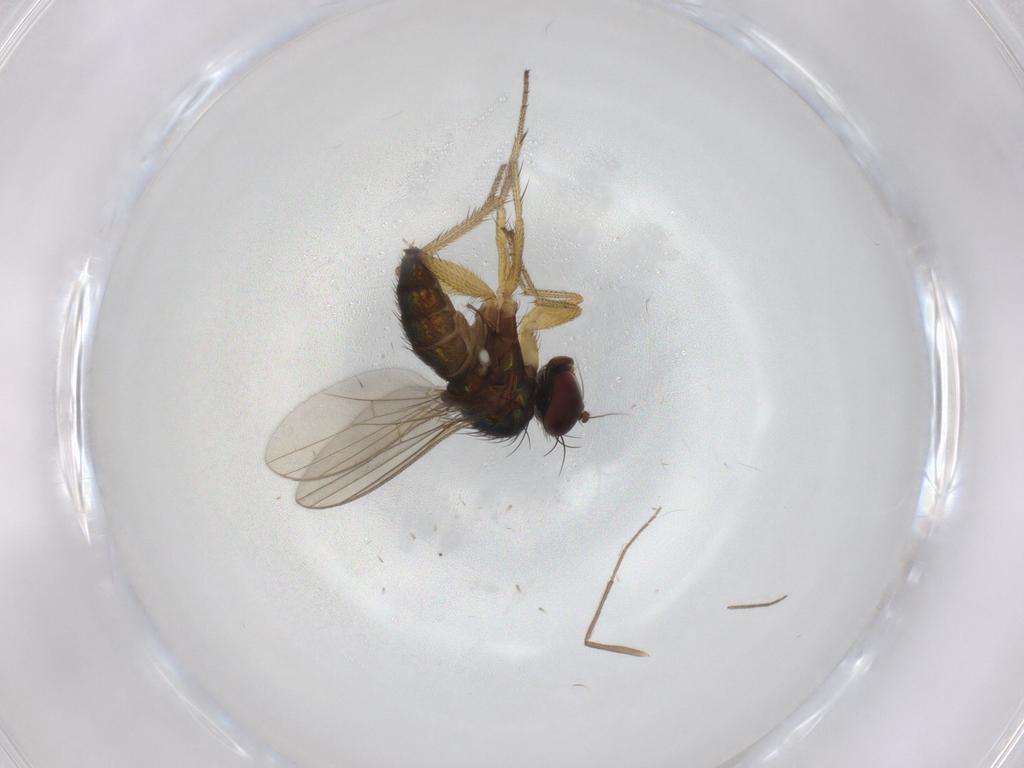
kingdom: Animalia
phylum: Arthropoda
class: Insecta
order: Diptera
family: Chironomidae
